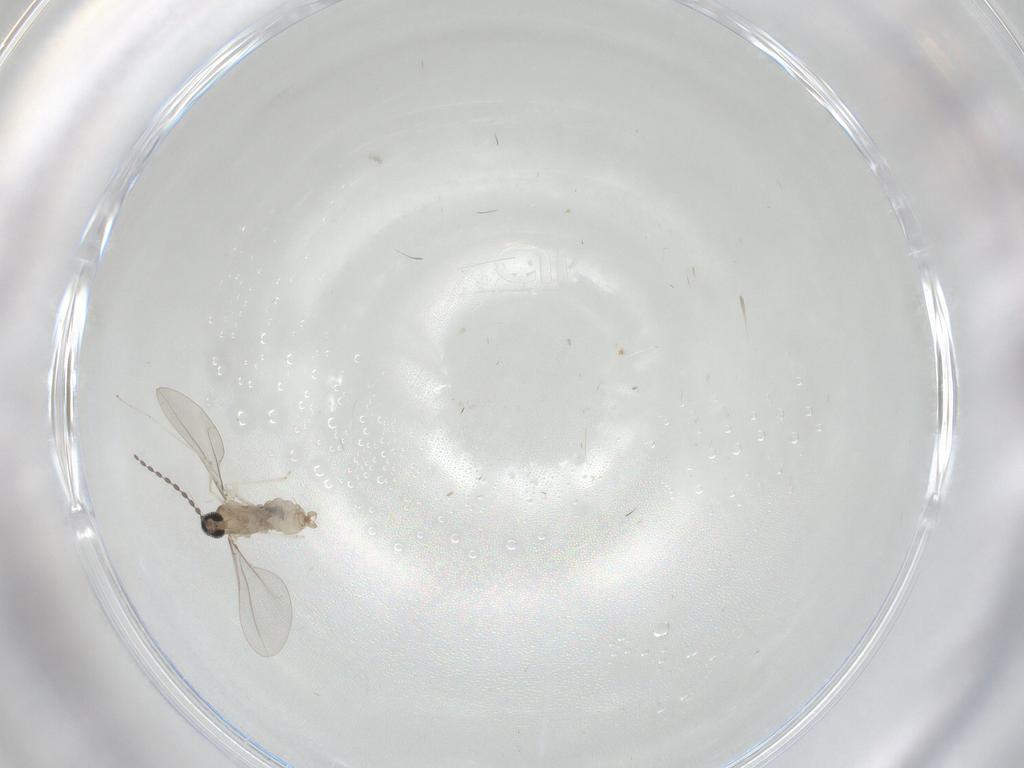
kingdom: Animalia
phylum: Arthropoda
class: Insecta
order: Diptera
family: Cecidomyiidae
